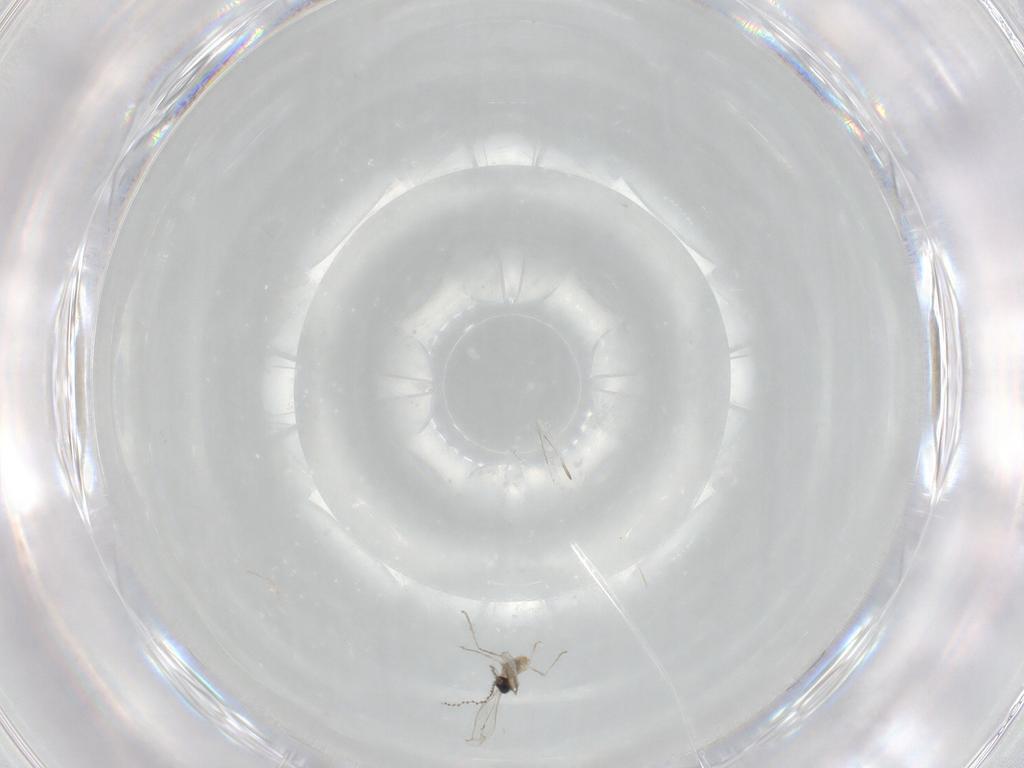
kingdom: Animalia
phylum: Arthropoda
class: Insecta
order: Diptera
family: Cecidomyiidae
